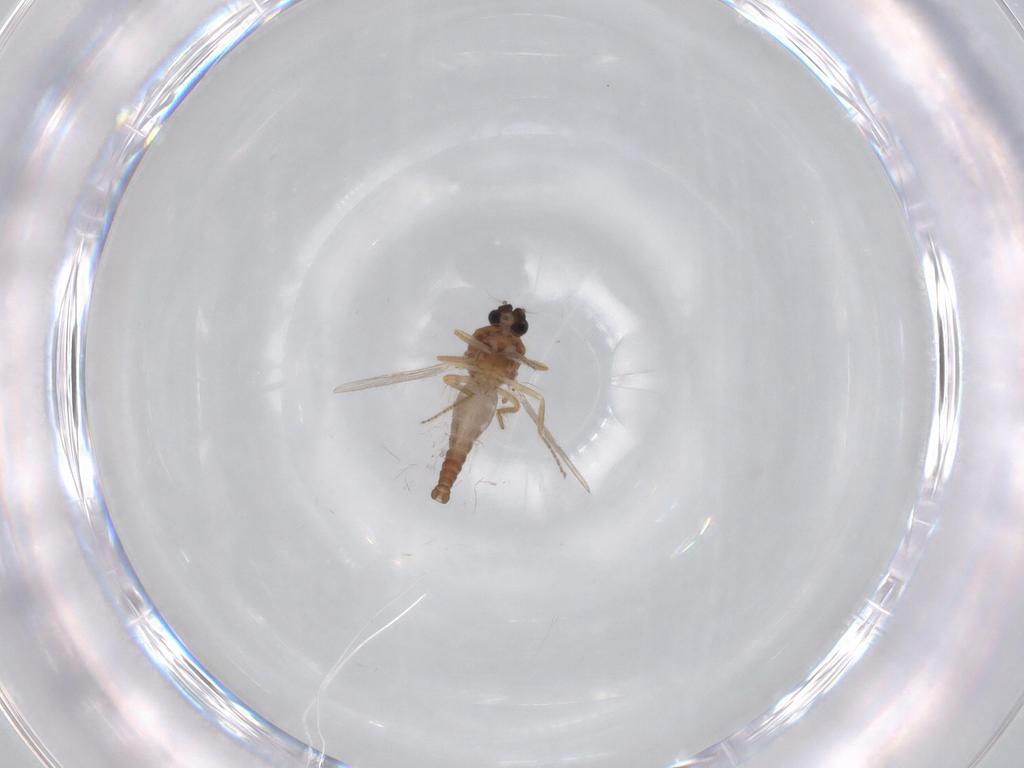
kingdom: Animalia
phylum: Arthropoda
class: Insecta
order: Diptera
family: Ceratopogonidae
